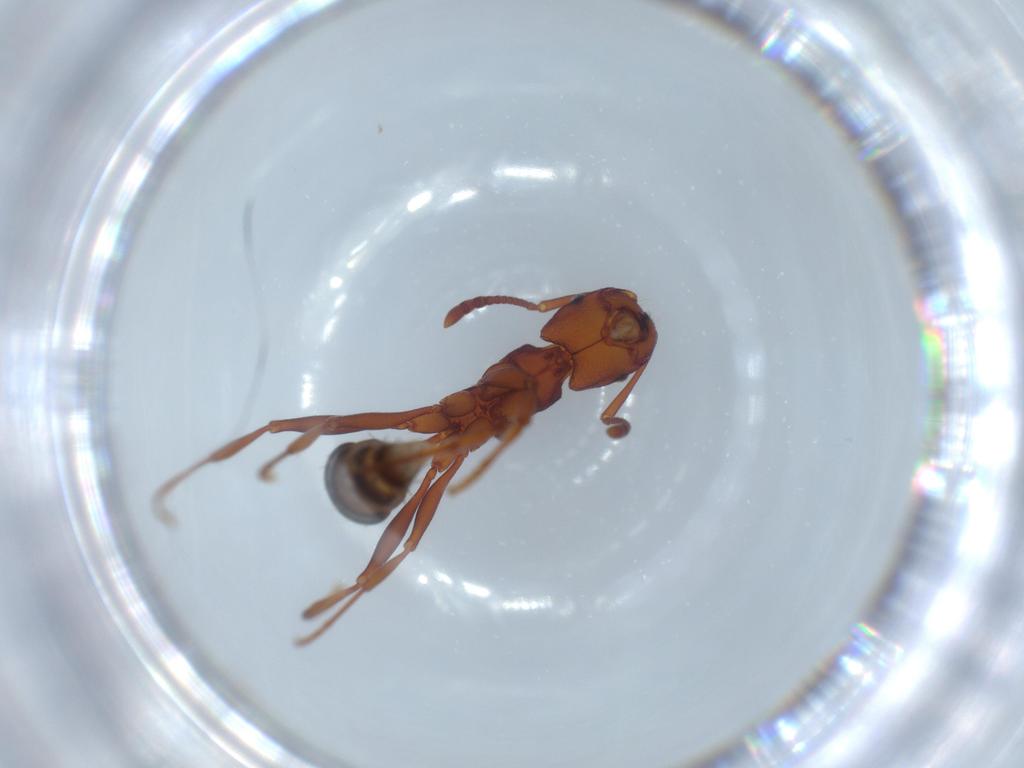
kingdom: Animalia
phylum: Arthropoda
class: Insecta
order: Hymenoptera
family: Formicidae
